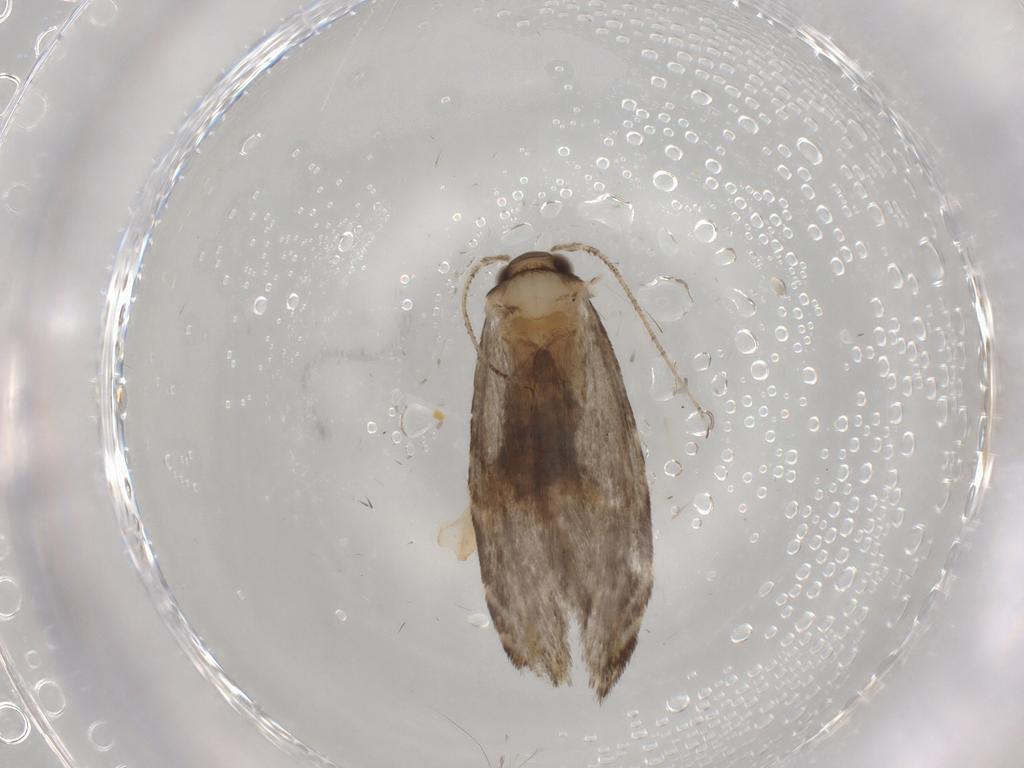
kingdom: Animalia
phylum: Arthropoda
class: Insecta
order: Lepidoptera
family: Tineidae
